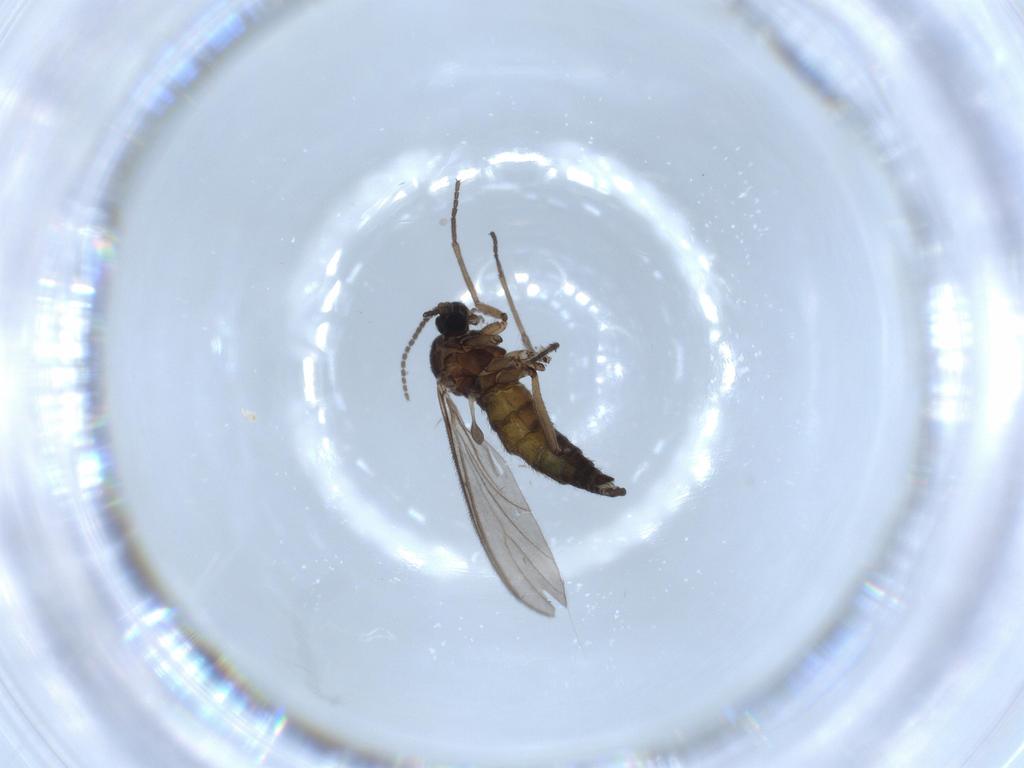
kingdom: Animalia
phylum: Arthropoda
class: Insecta
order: Diptera
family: Sciaridae
